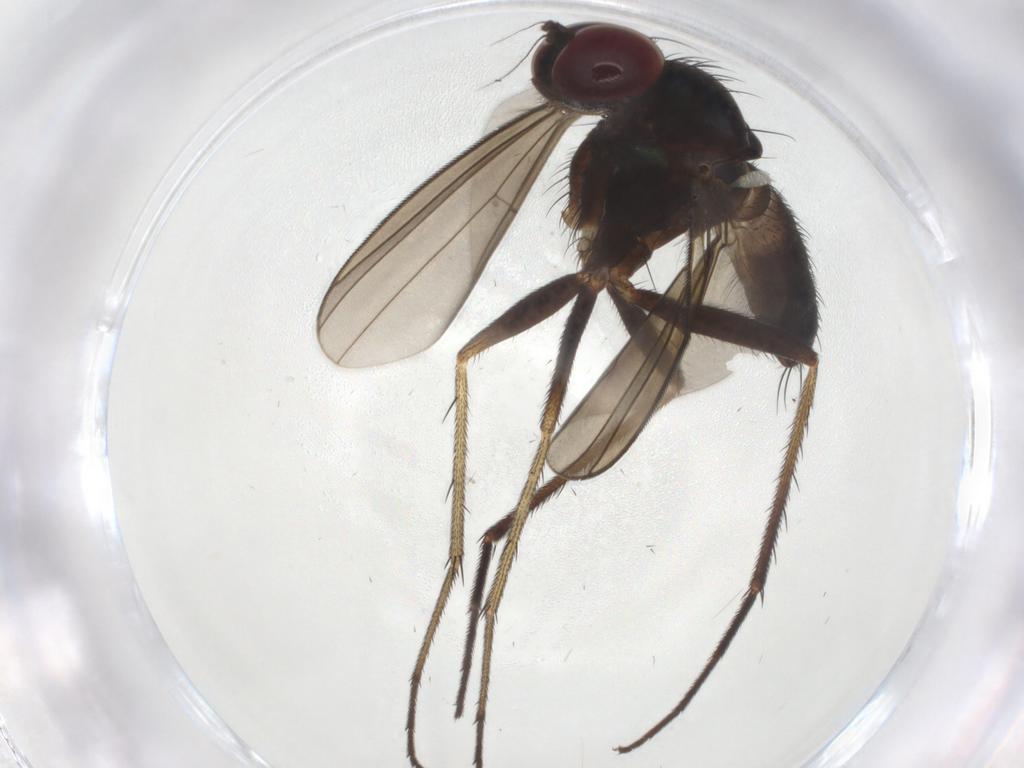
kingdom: Animalia
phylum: Arthropoda
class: Insecta
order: Diptera
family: Dolichopodidae
